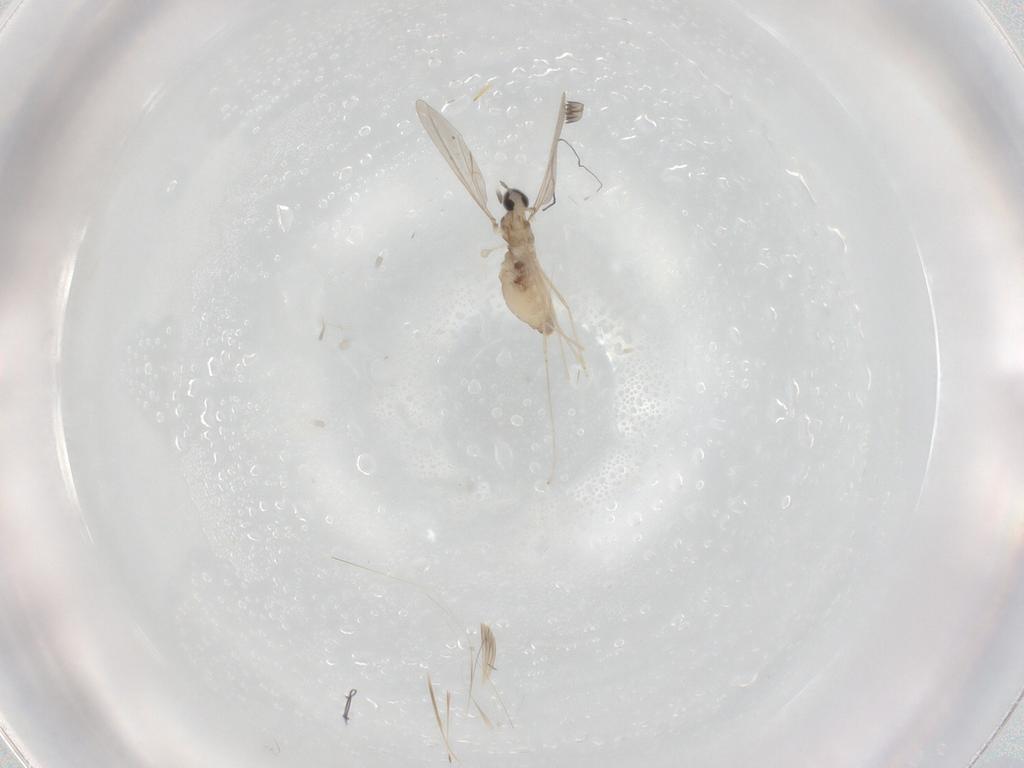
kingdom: Animalia
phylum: Arthropoda
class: Insecta
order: Diptera
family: Cecidomyiidae
